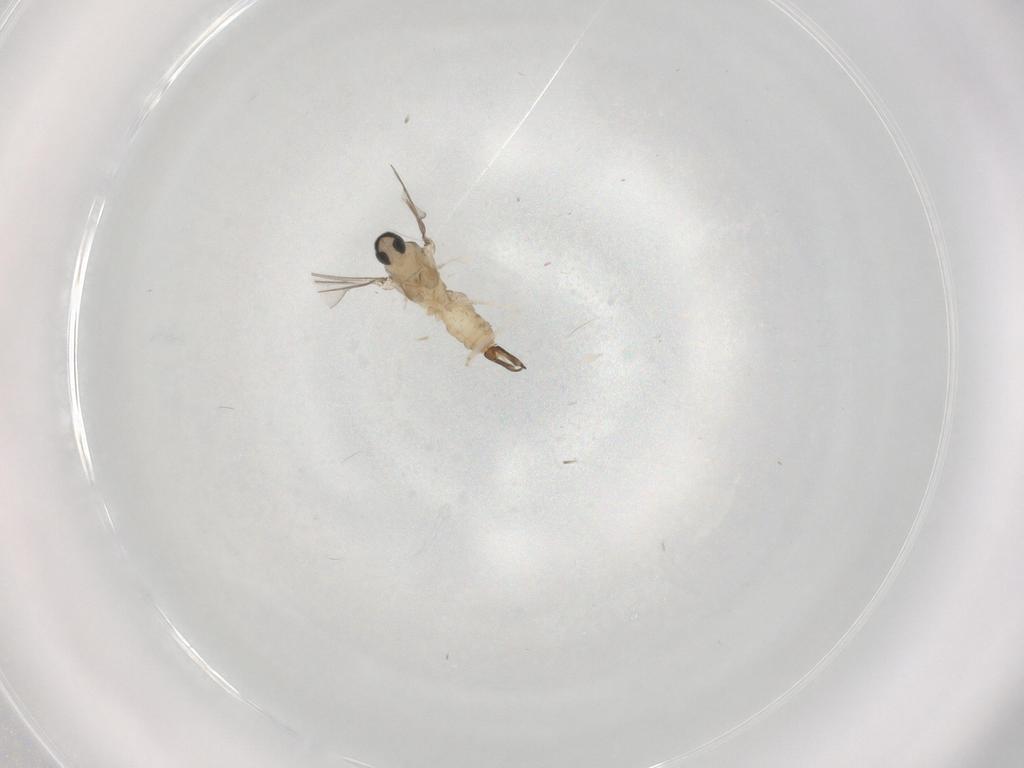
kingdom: Animalia
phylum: Arthropoda
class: Insecta
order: Diptera
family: Cecidomyiidae
